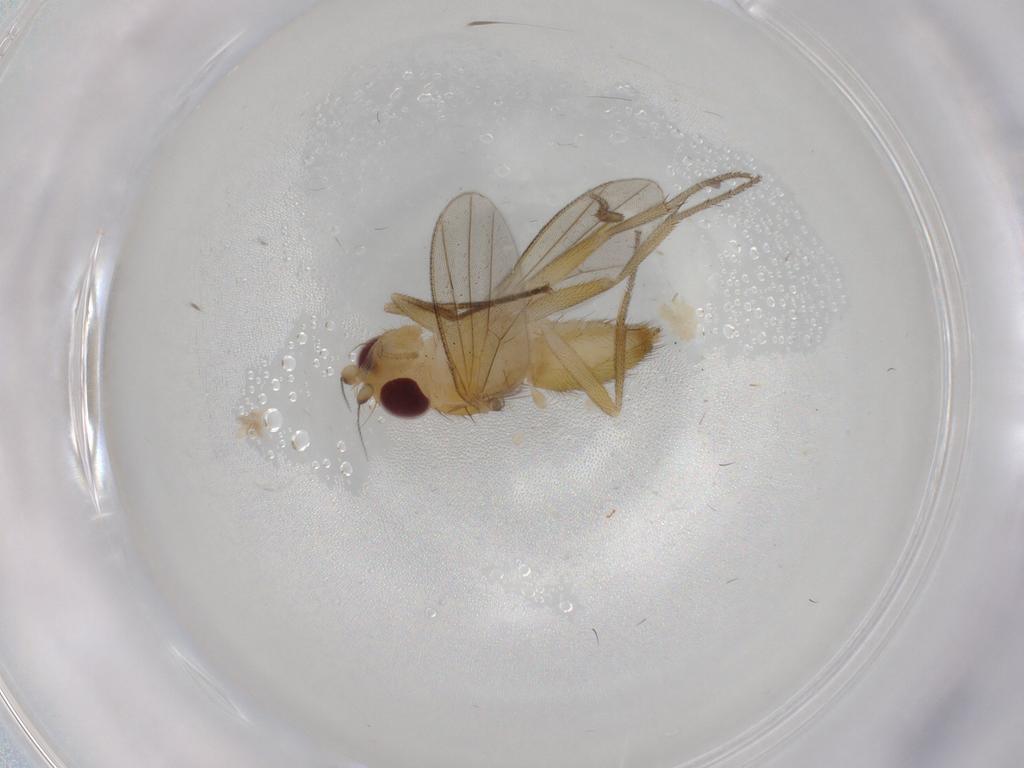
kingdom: Animalia
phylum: Arthropoda
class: Insecta
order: Diptera
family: Clusiidae
